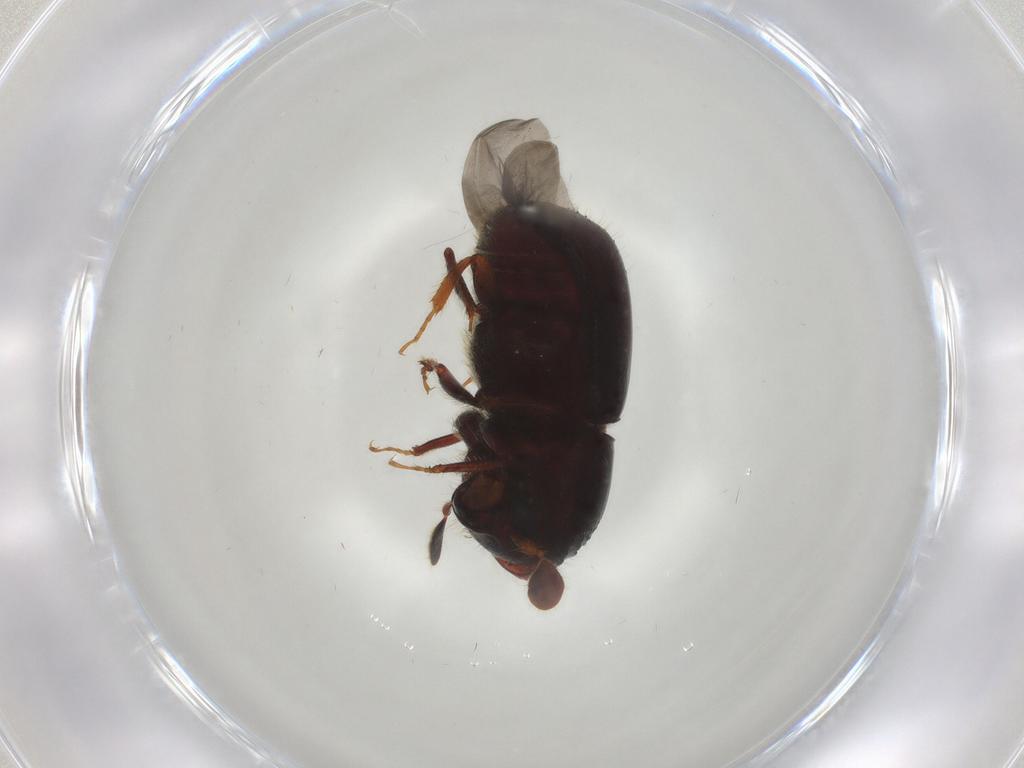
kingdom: Animalia
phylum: Arthropoda
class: Insecta
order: Coleoptera
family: Curculionidae
